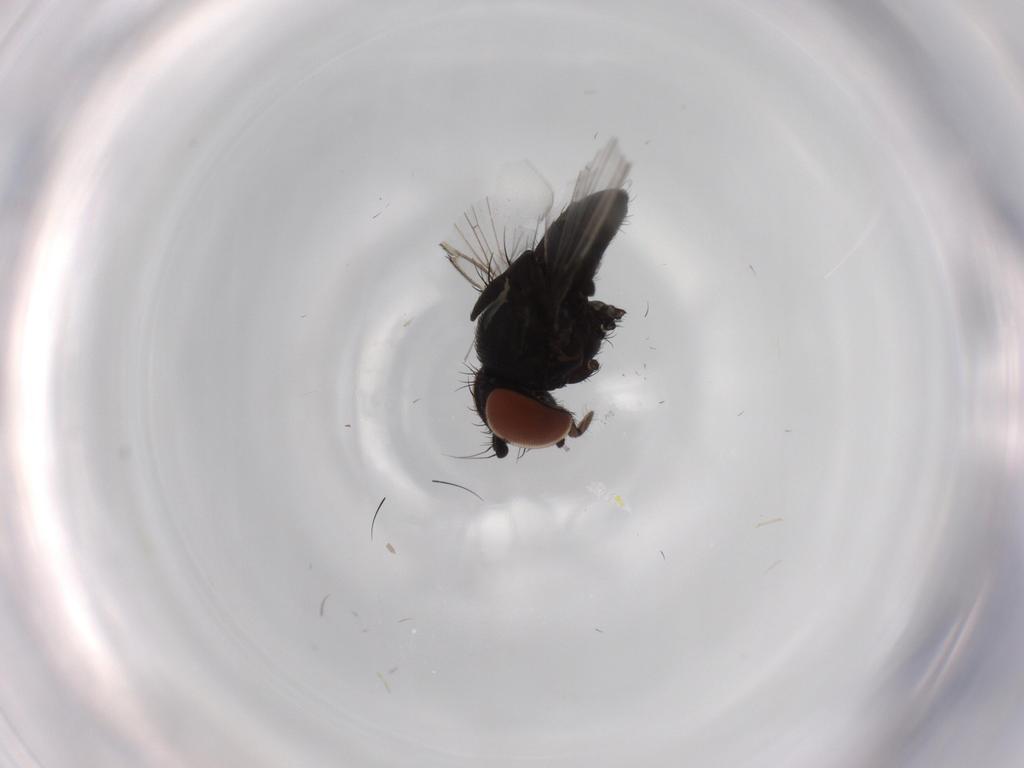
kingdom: Animalia
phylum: Arthropoda
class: Insecta
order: Diptera
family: Milichiidae
